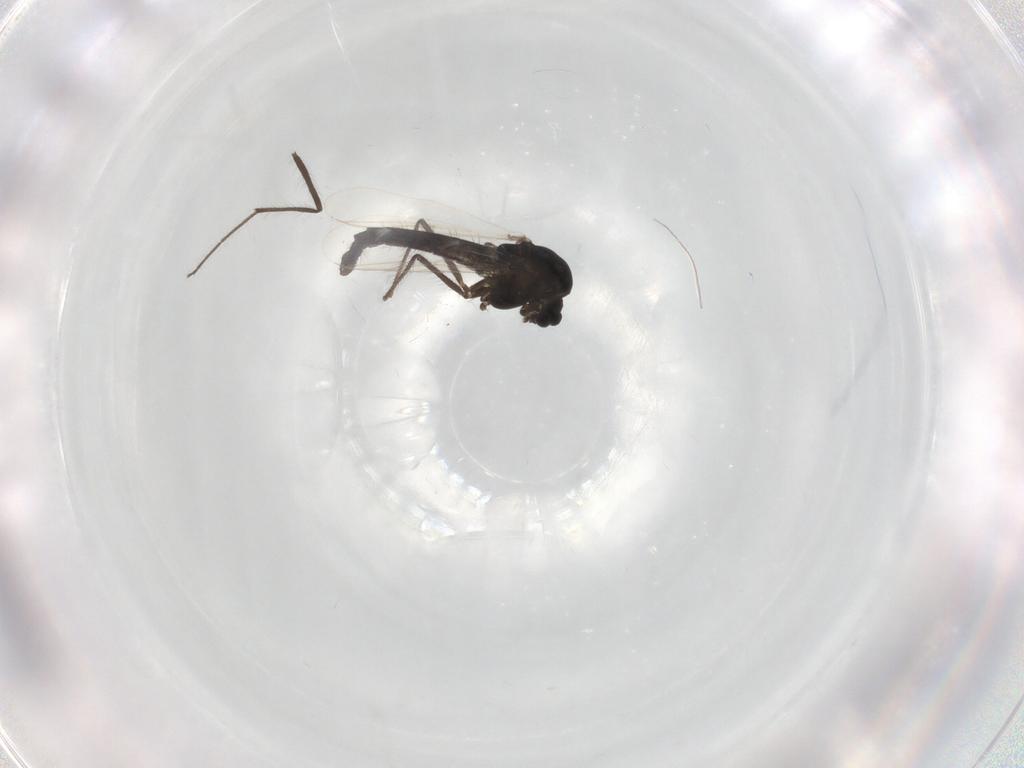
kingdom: Animalia
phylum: Arthropoda
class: Insecta
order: Diptera
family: Chironomidae
